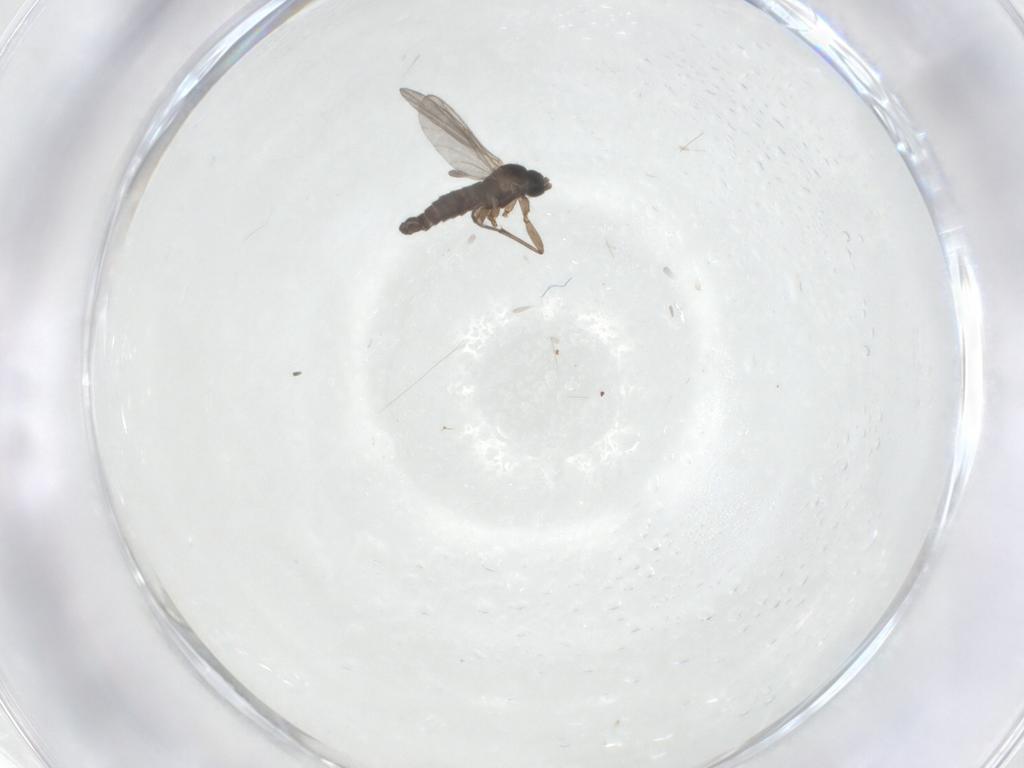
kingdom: Animalia
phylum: Arthropoda
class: Insecta
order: Diptera
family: Sciaridae
